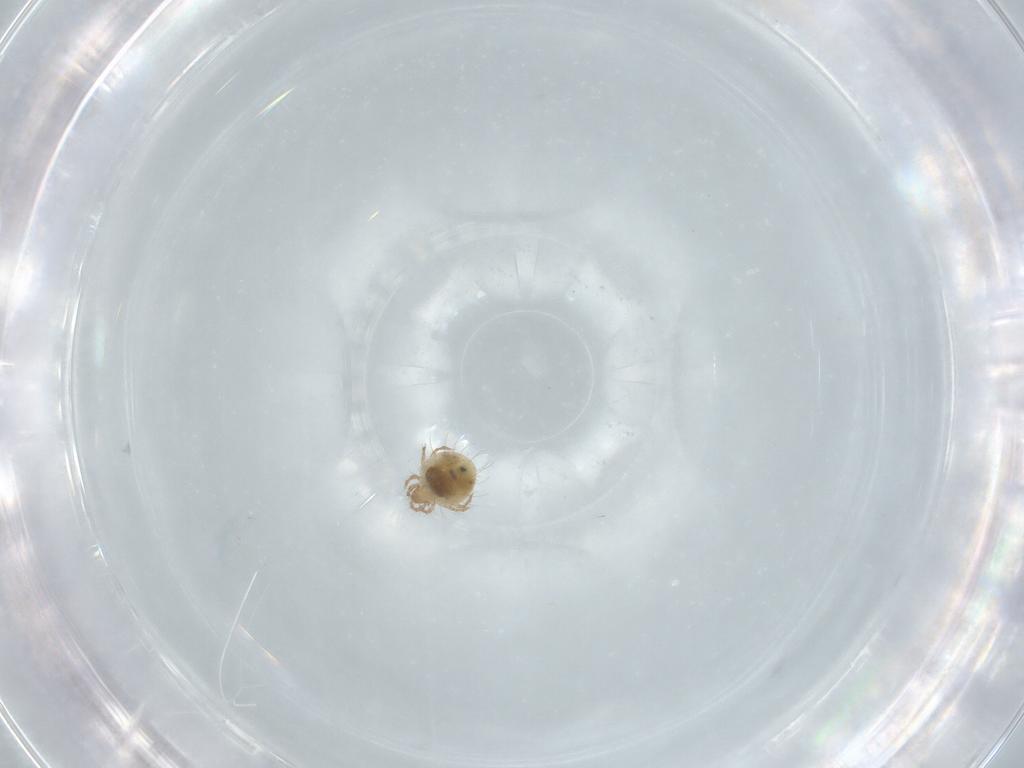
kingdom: Animalia
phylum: Arthropoda
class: Arachnida
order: Sarcoptiformes
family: Mochlozetidae
